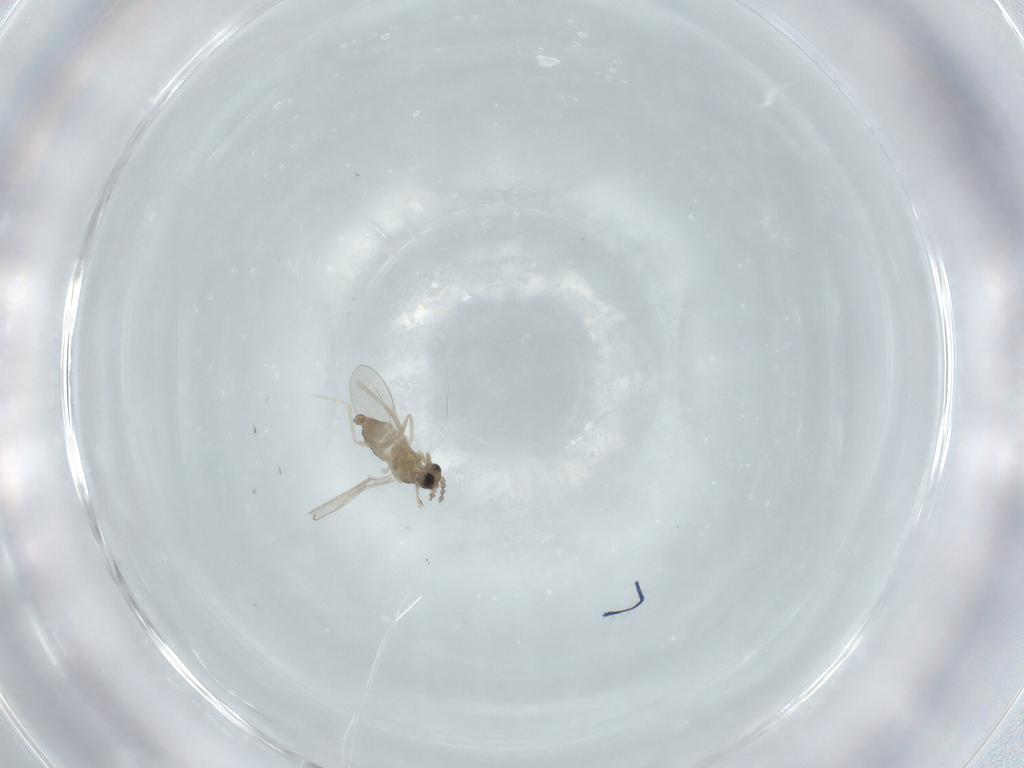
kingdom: Animalia
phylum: Arthropoda
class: Insecta
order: Diptera
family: Cecidomyiidae
